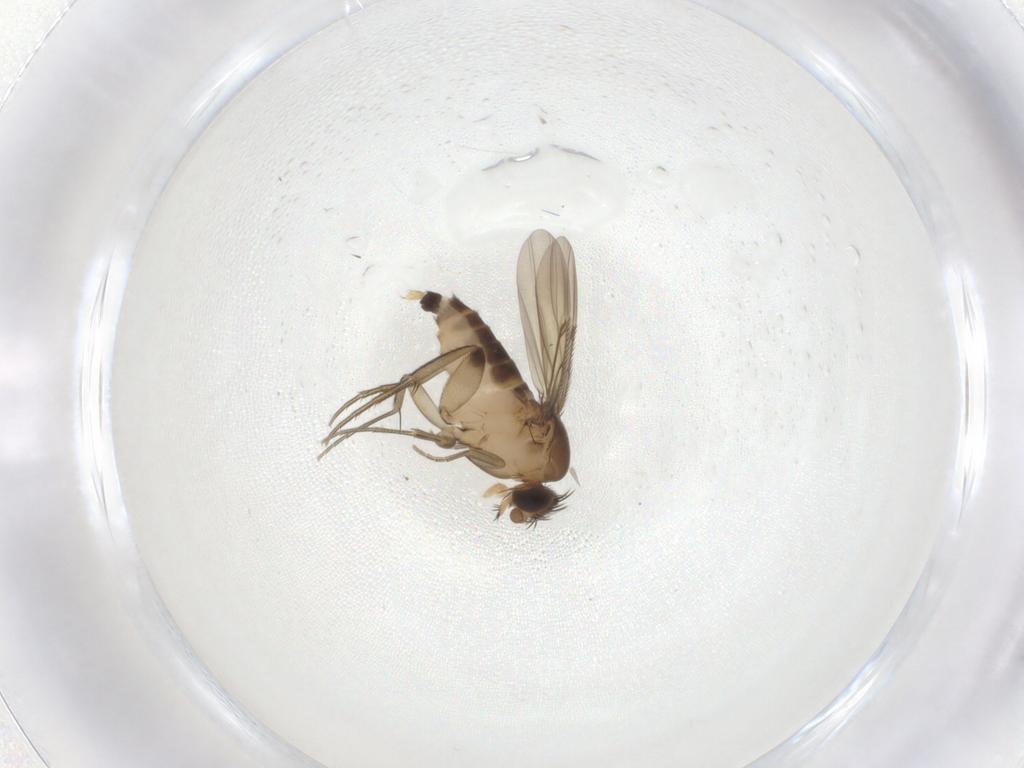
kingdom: Animalia
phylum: Arthropoda
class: Insecta
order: Diptera
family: Phoridae
